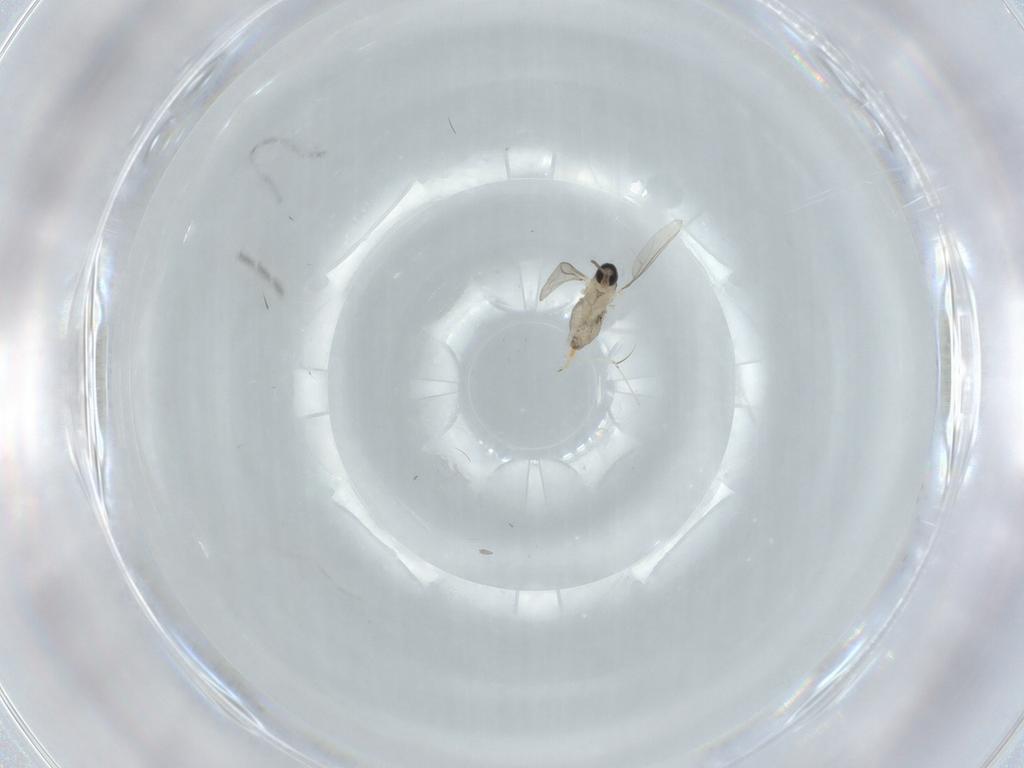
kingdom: Animalia
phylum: Arthropoda
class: Insecta
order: Diptera
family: Cecidomyiidae
